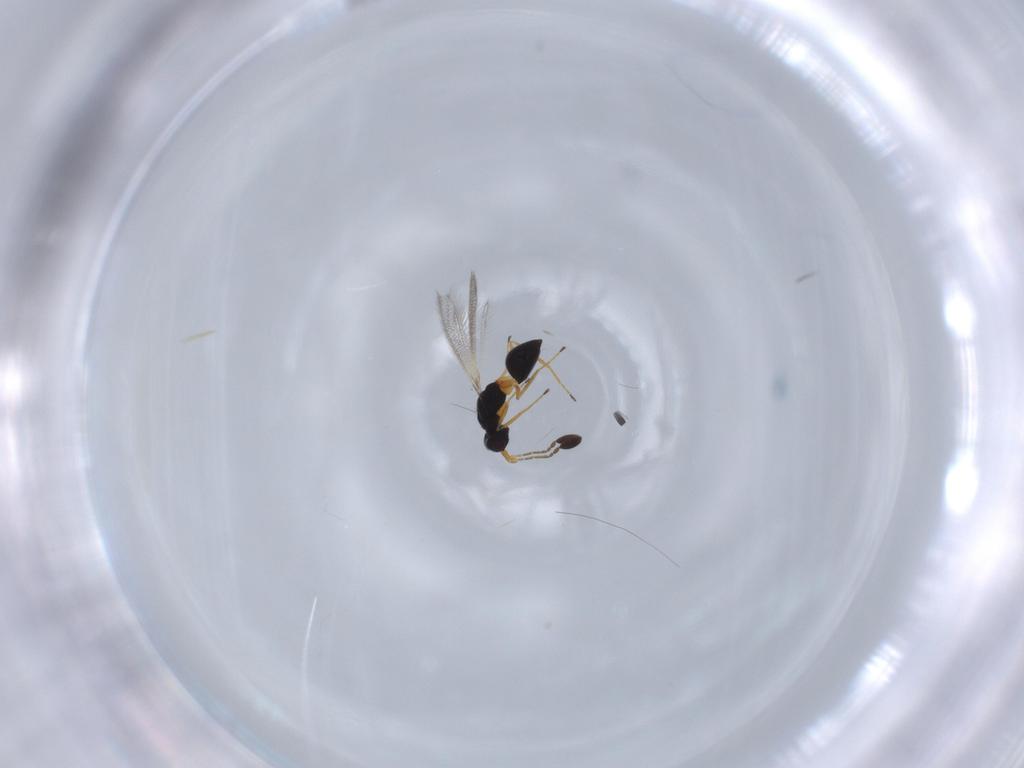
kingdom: Animalia
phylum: Arthropoda
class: Insecta
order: Hymenoptera
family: Mymaridae
